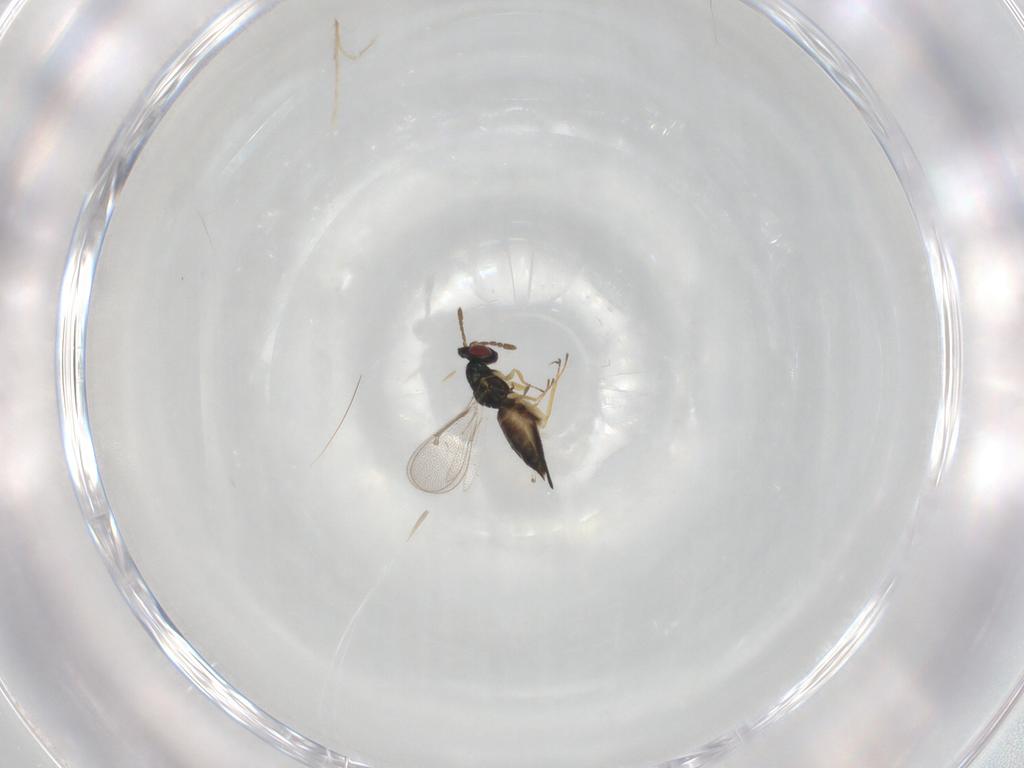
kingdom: Animalia
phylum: Arthropoda
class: Insecta
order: Hymenoptera
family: Eulophidae
